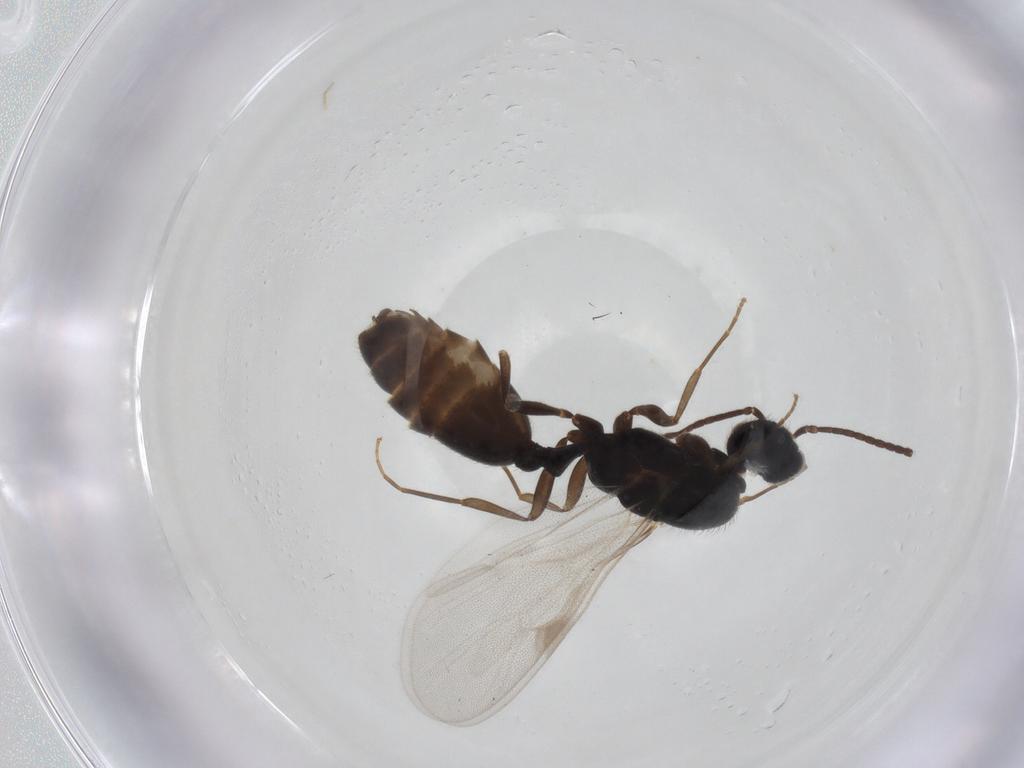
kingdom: Animalia
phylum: Arthropoda
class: Insecta
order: Hymenoptera
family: Formicidae
